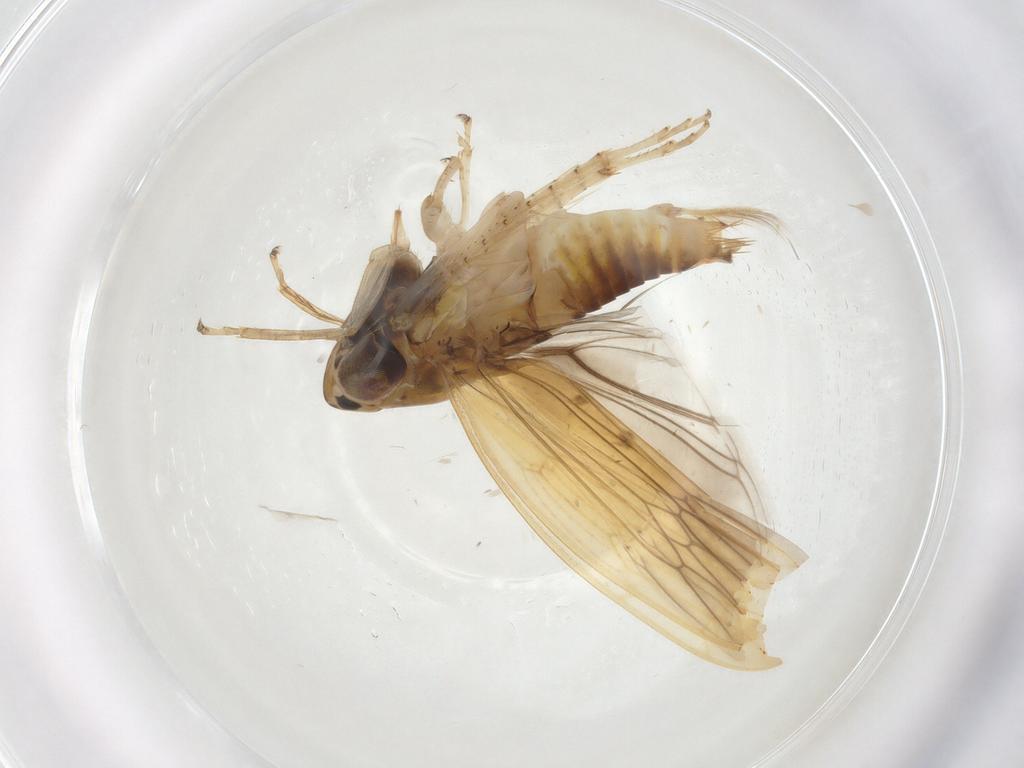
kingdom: Animalia
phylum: Arthropoda
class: Insecta
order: Hemiptera
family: Cicadellidae
